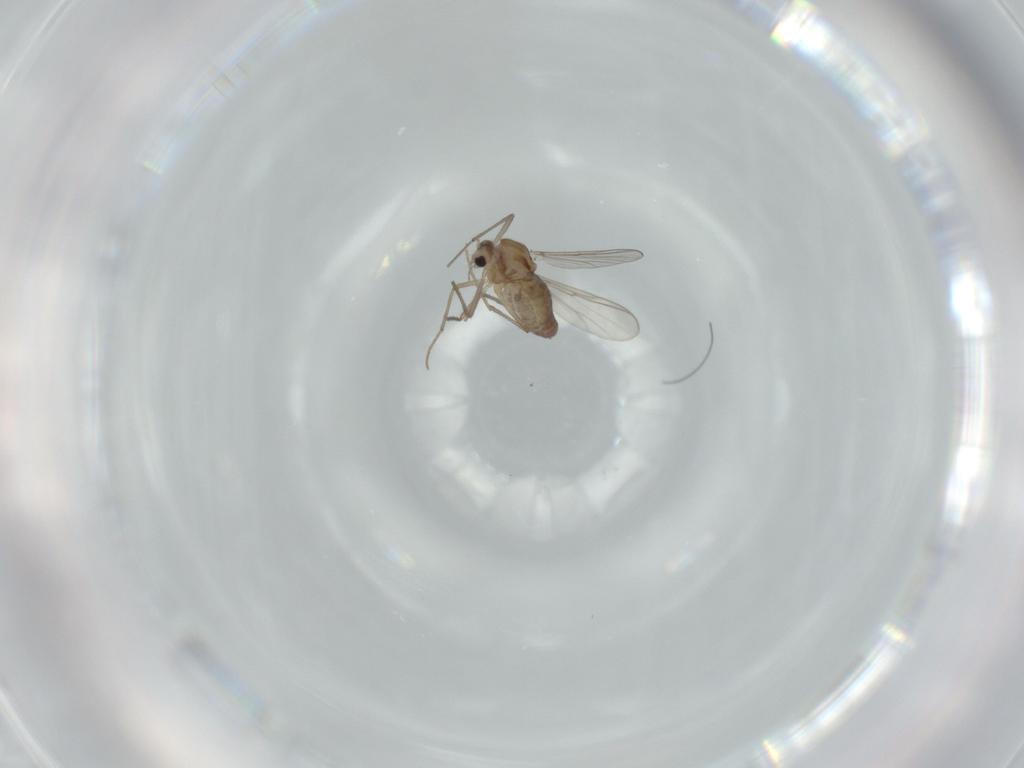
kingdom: Animalia
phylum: Arthropoda
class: Insecta
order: Diptera
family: Chironomidae
